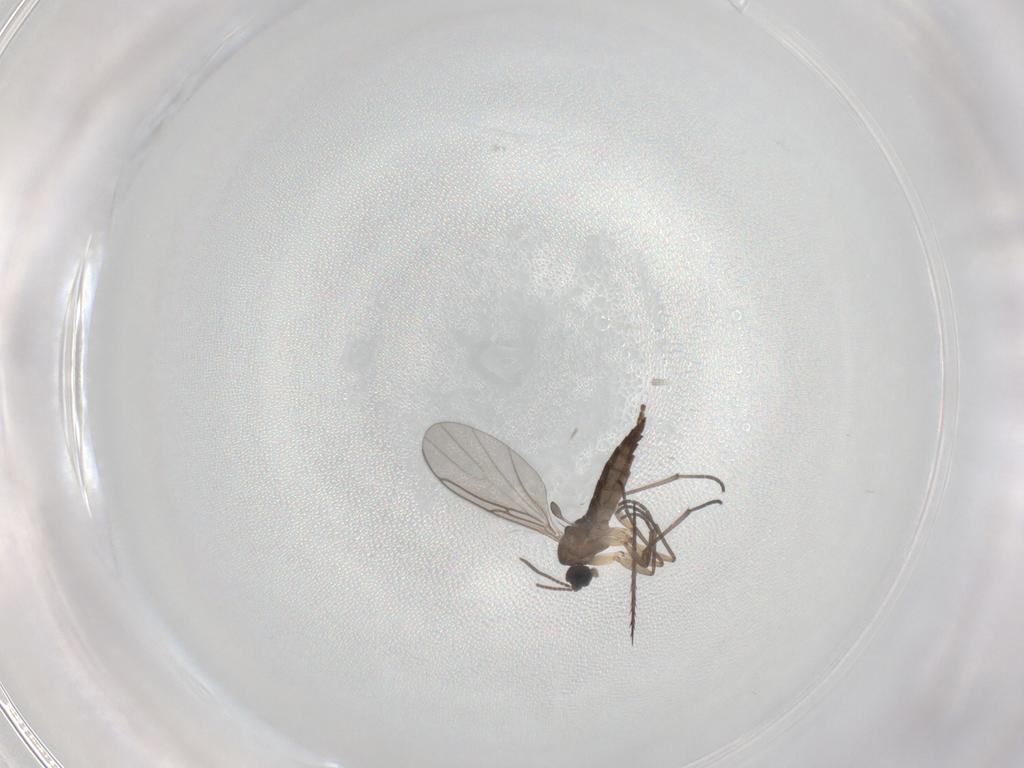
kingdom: Animalia
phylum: Arthropoda
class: Insecta
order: Diptera
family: Sciaridae
